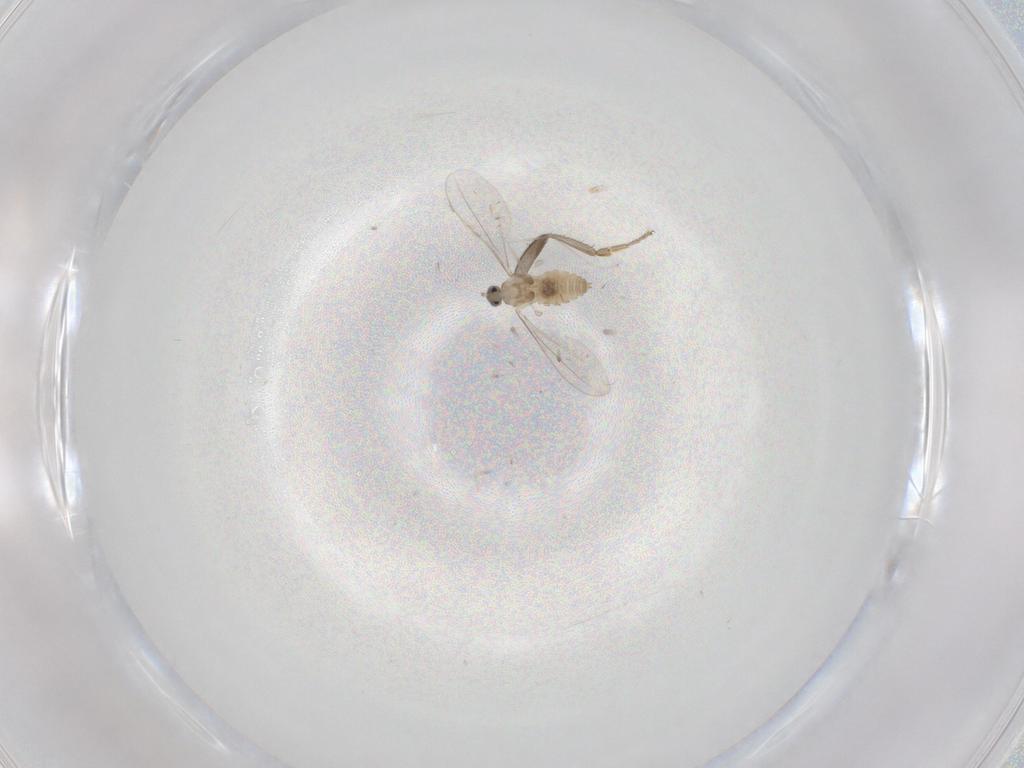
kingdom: Animalia
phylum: Arthropoda
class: Insecta
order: Diptera
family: Cecidomyiidae
